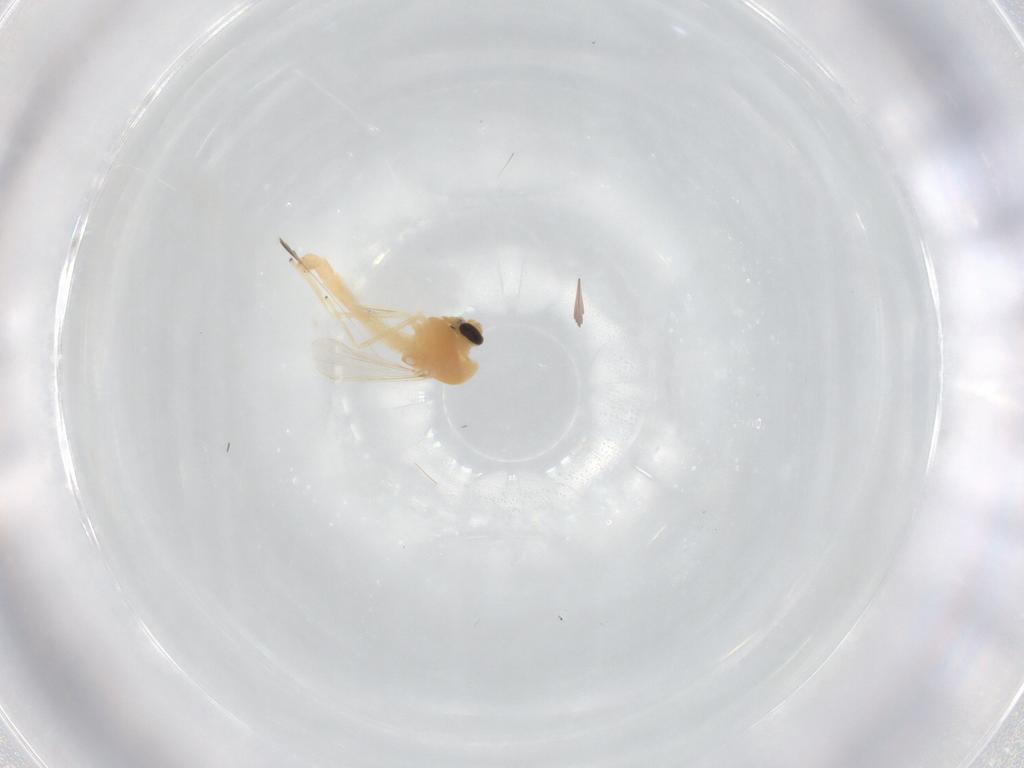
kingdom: Animalia
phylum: Arthropoda
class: Insecta
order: Diptera
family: Chironomidae
